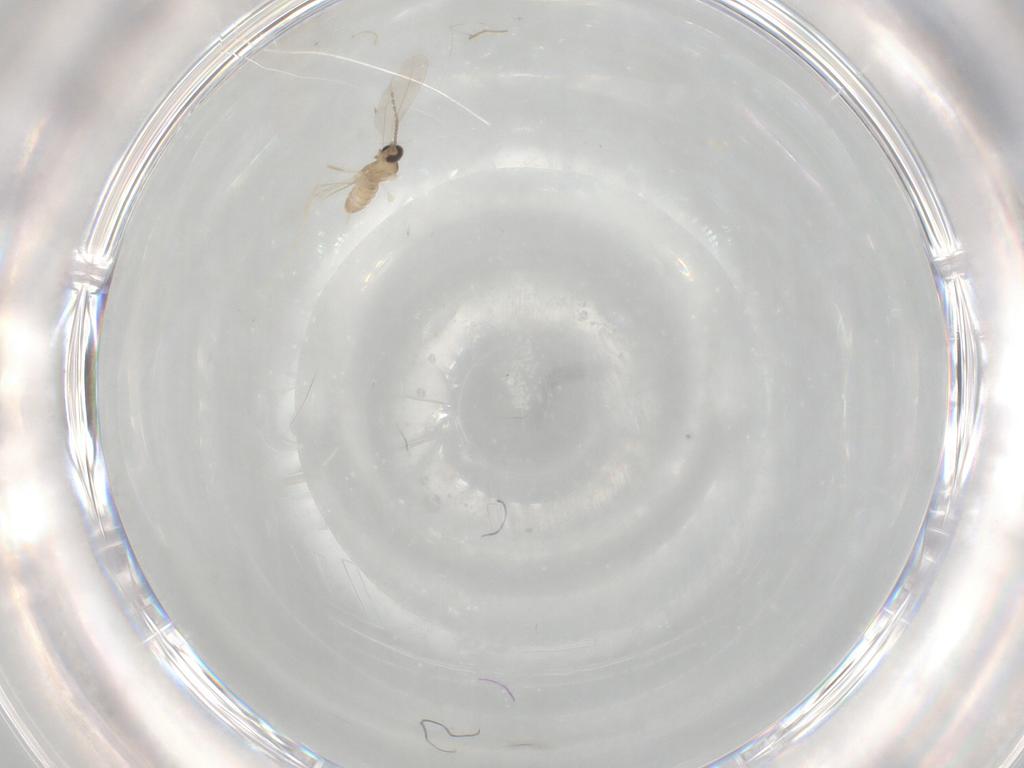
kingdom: Animalia
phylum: Arthropoda
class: Insecta
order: Diptera
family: Cecidomyiidae
